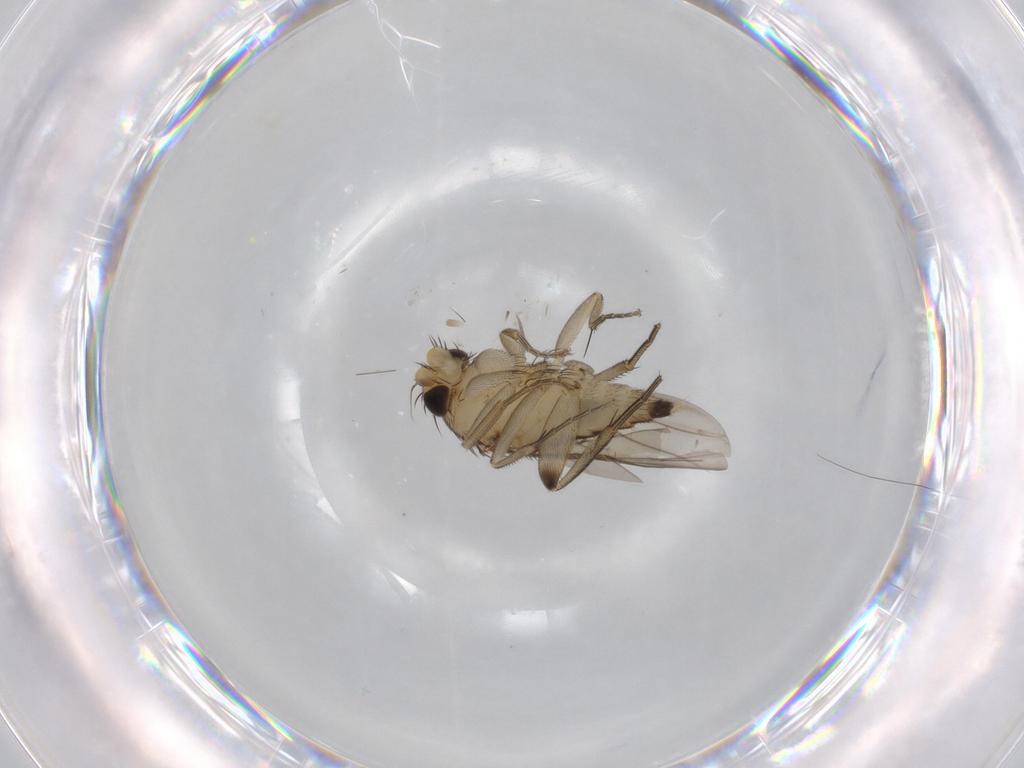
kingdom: Animalia
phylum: Arthropoda
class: Insecta
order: Diptera
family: Phoridae
